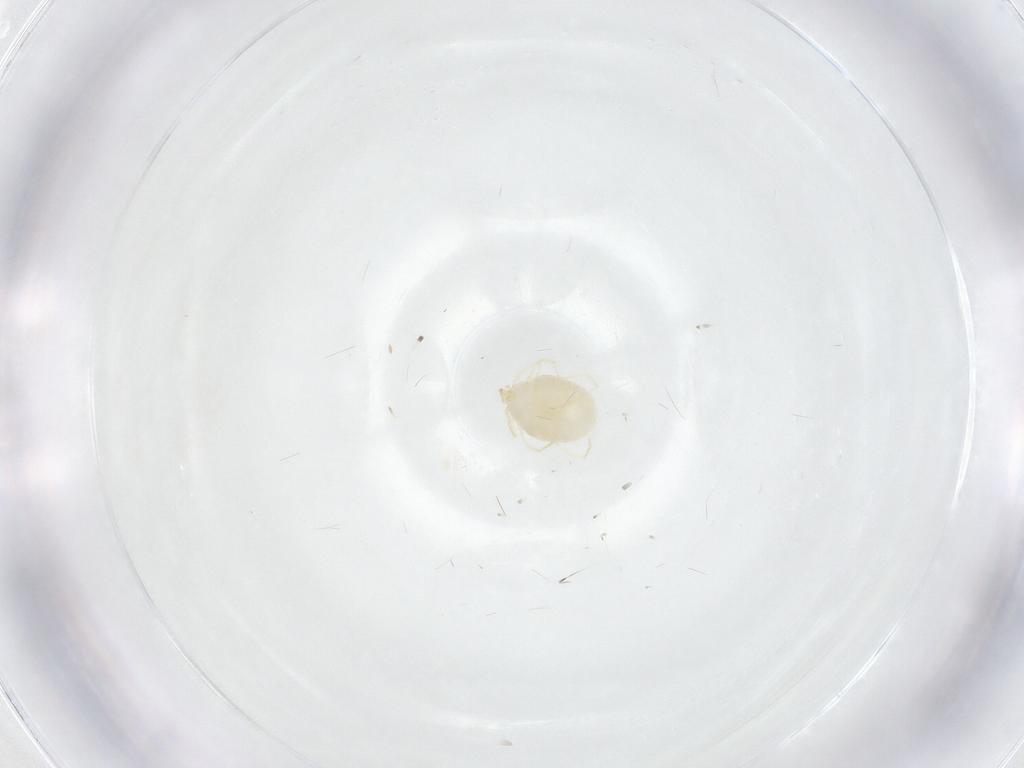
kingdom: Animalia
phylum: Arthropoda
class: Arachnida
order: Trombidiformes
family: Erythraeidae
